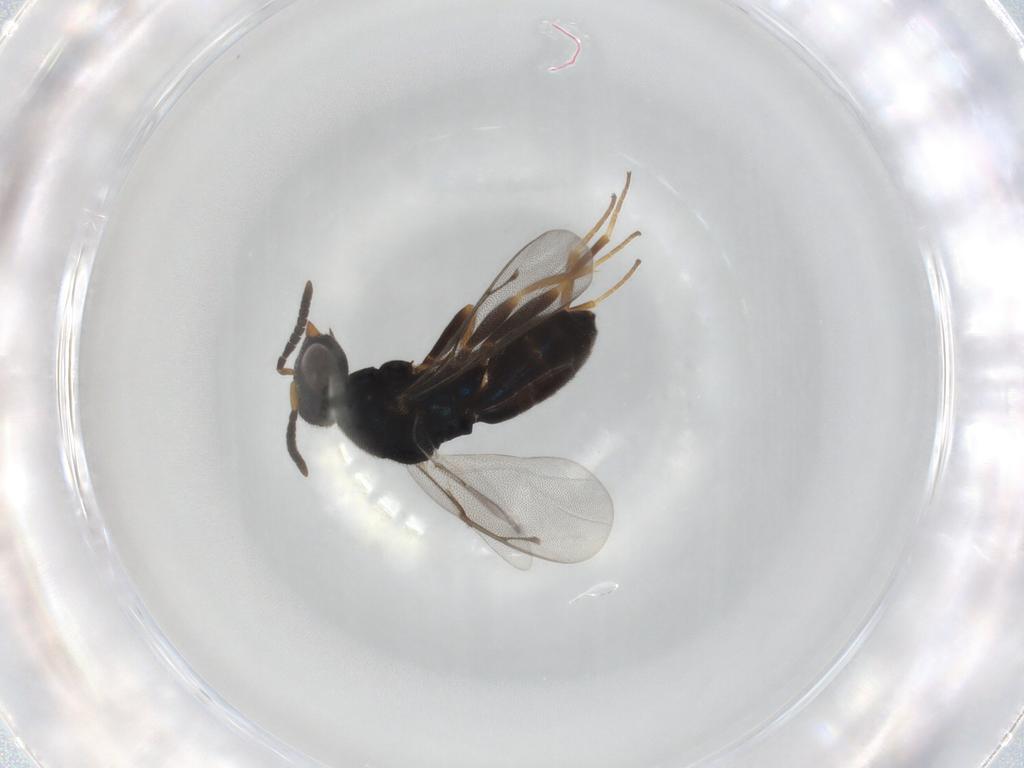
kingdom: Animalia
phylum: Arthropoda
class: Insecta
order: Hymenoptera
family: Pteromalidae
